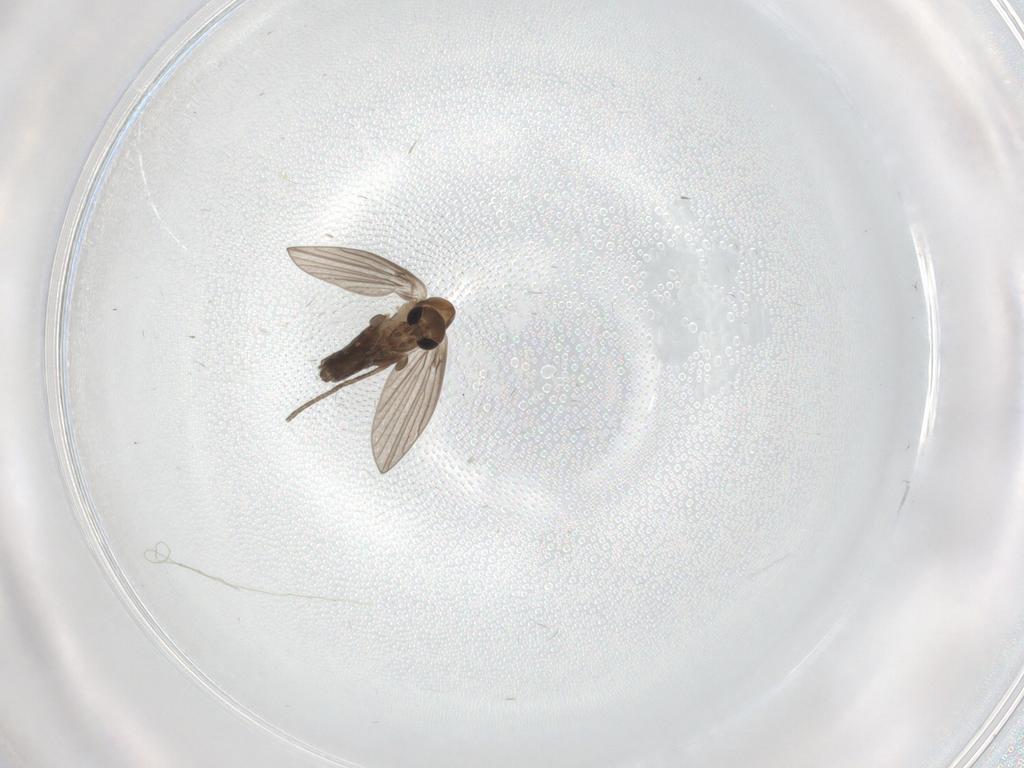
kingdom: Animalia
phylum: Arthropoda
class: Insecta
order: Diptera
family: Psychodidae
